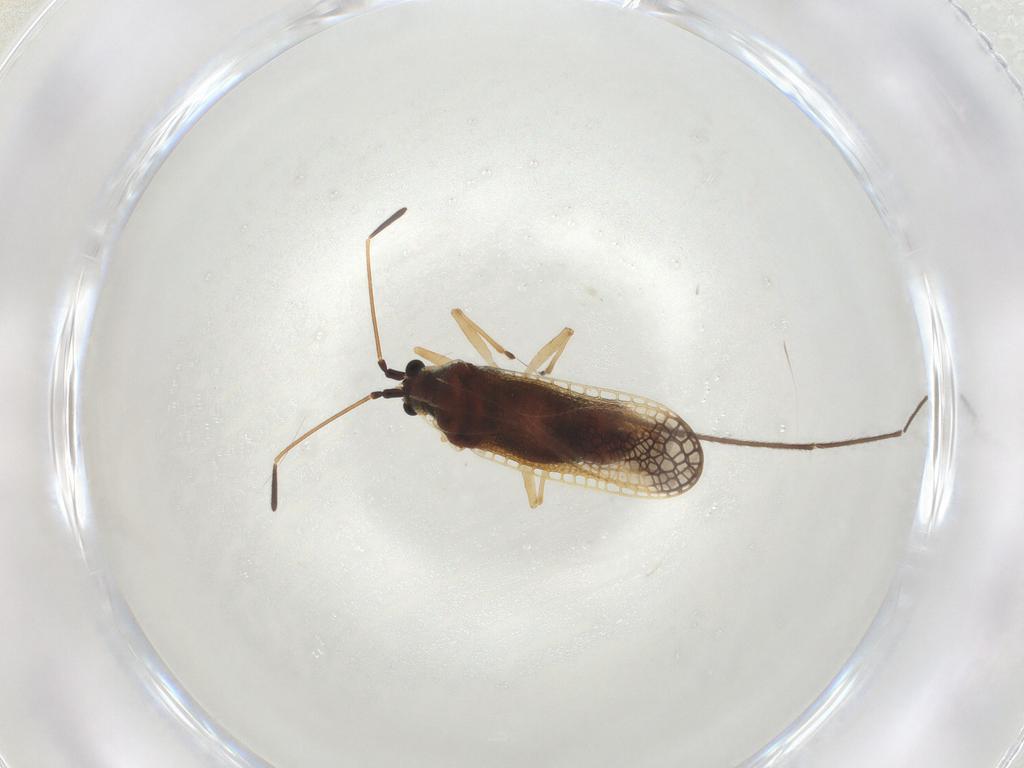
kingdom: Animalia
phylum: Arthropoda
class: Insecta
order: Hemiptera
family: Tingidae
